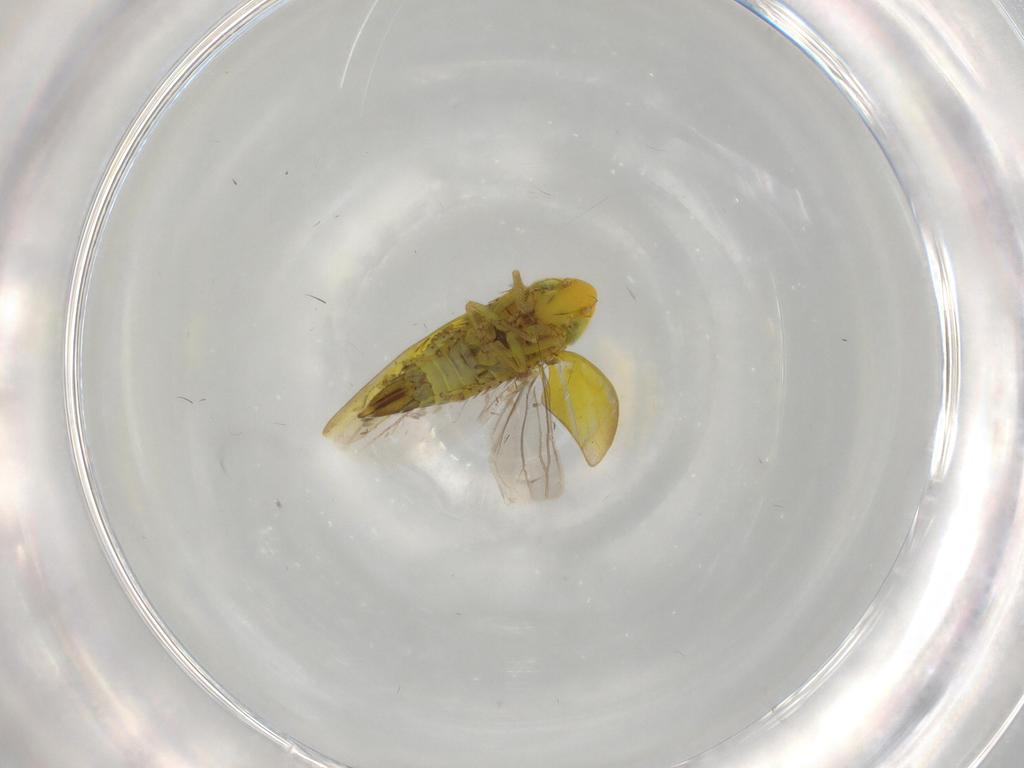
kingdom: Animalia
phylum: Arthropoda
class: Insecta
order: Hemiptera
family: Cicadellidae
